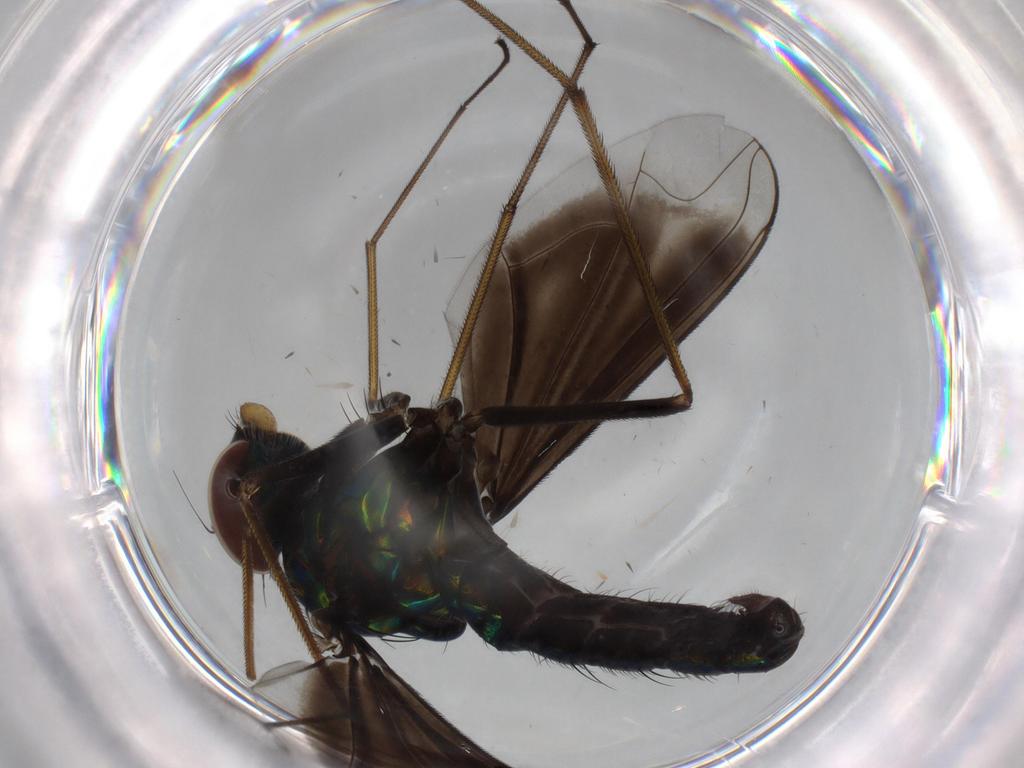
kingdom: Animalia
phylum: Arthropoda
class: Insecta
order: Diptera
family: Dolichopodidae
